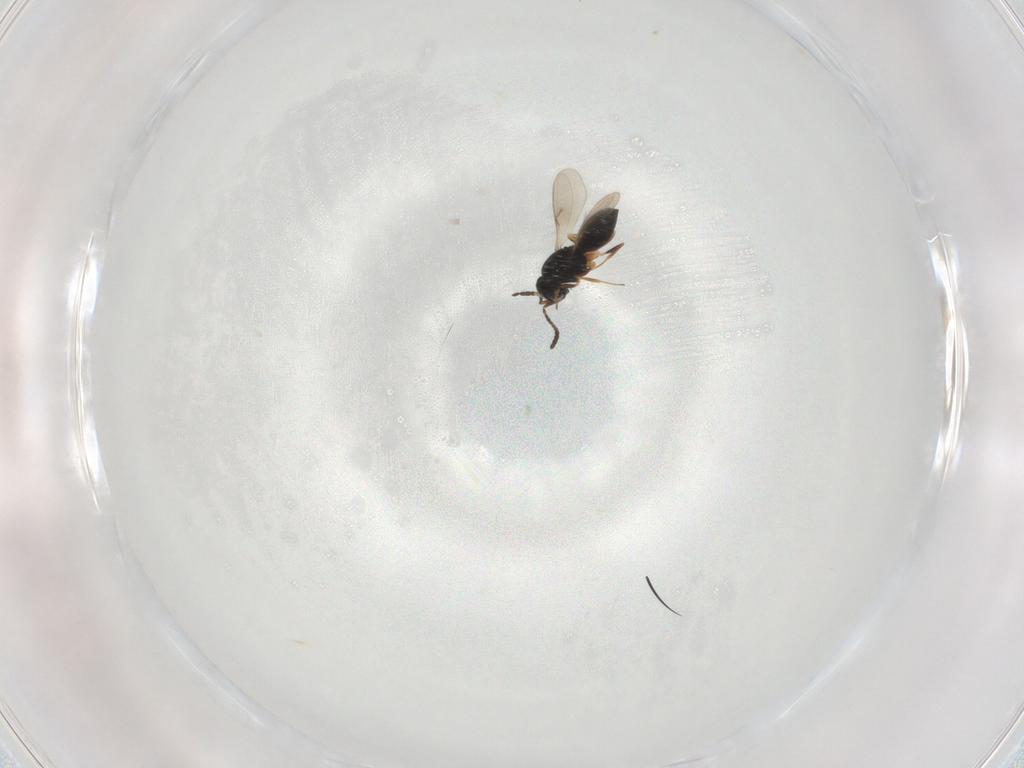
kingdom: Animalia
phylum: Arthropoda
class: Insecta
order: Hymenoptera
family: Scelionidae
